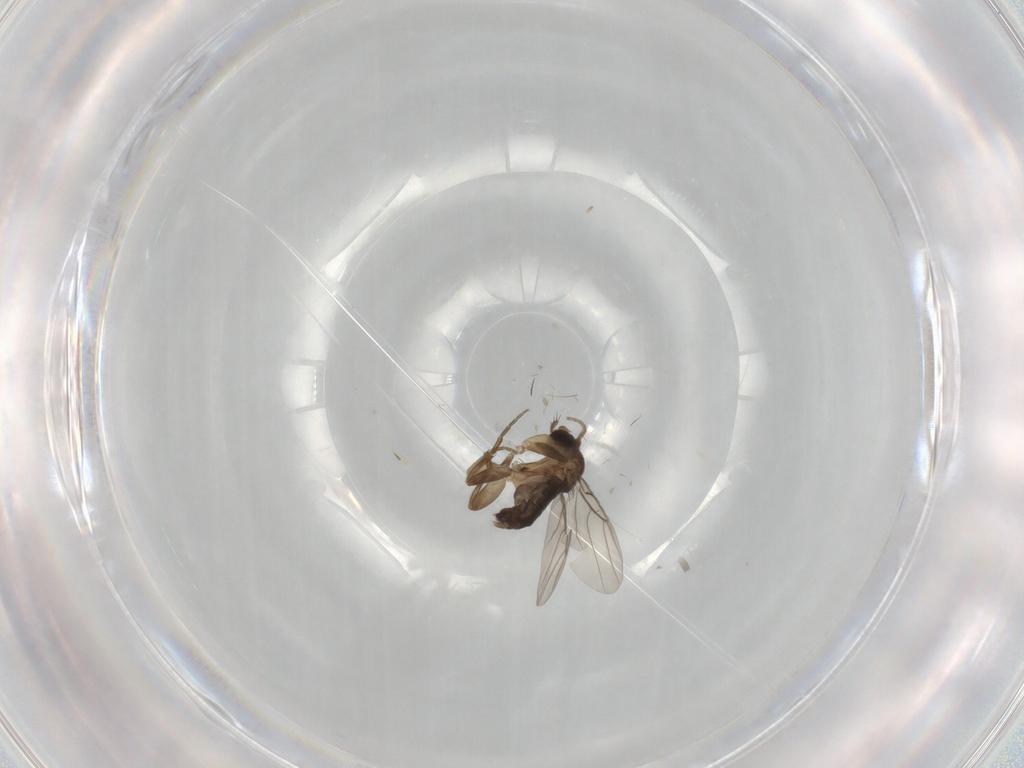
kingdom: Animalia
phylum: Arthropoda
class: Insecta
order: Diptera
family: Phoridae
